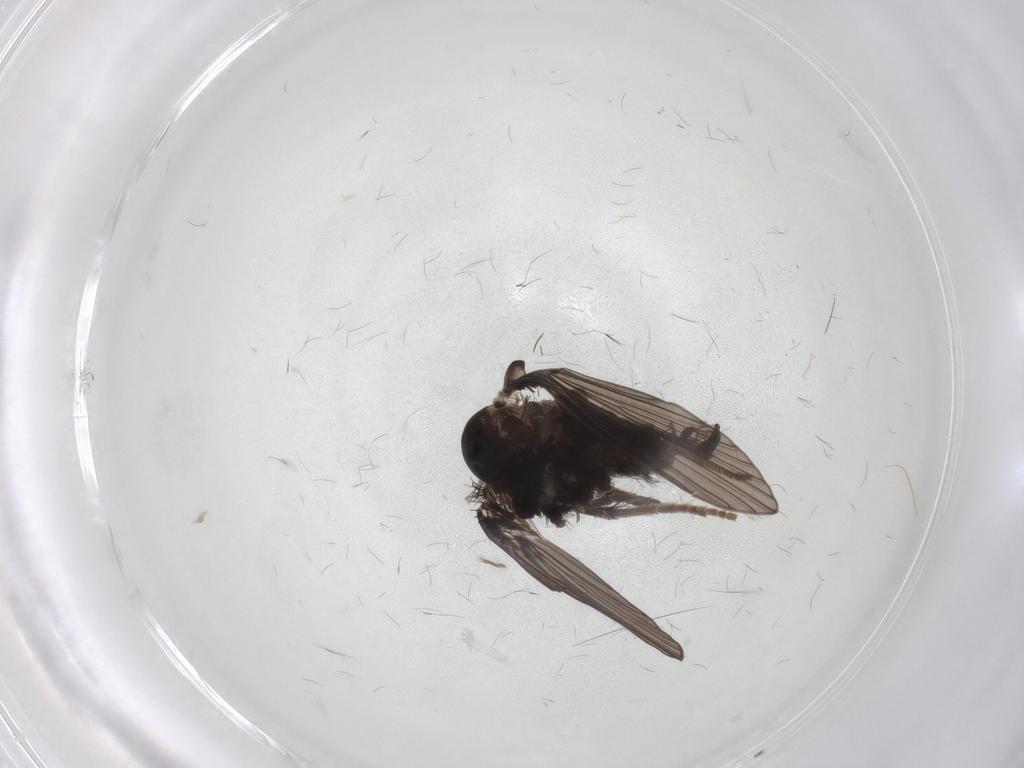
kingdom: Animalia
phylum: Arthropoda
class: Insecta
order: Diptera
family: Psychodidae
